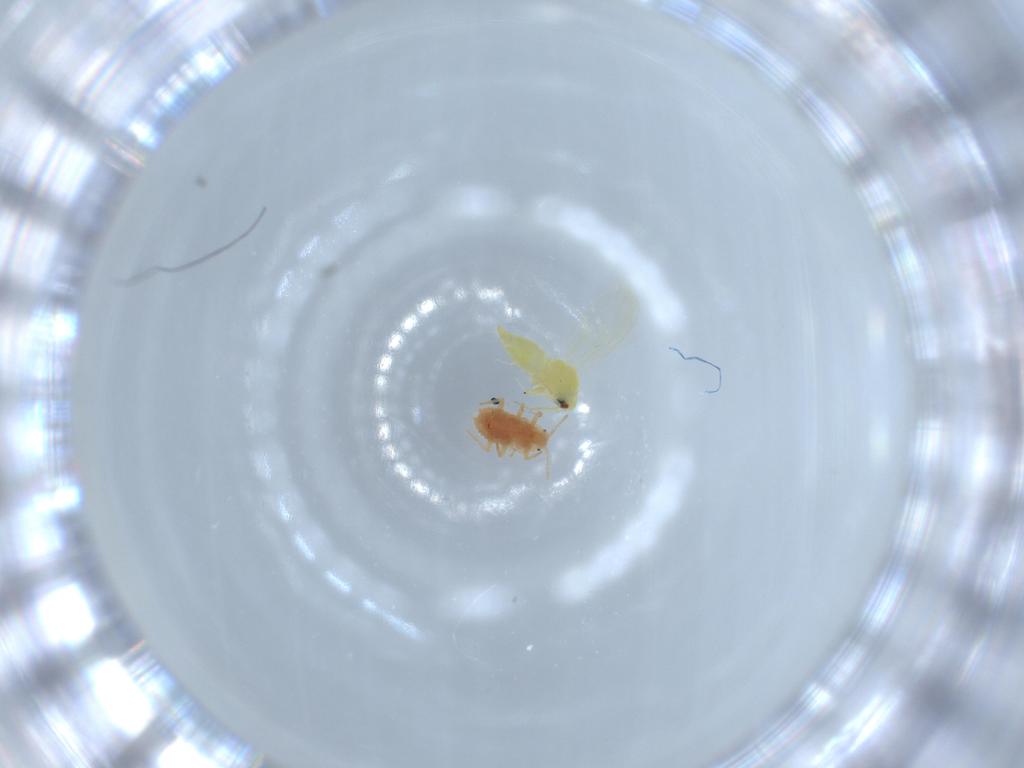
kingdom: Animalia
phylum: Arthropoda
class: Insecta
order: Hemiptera
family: Aleyrodidae
